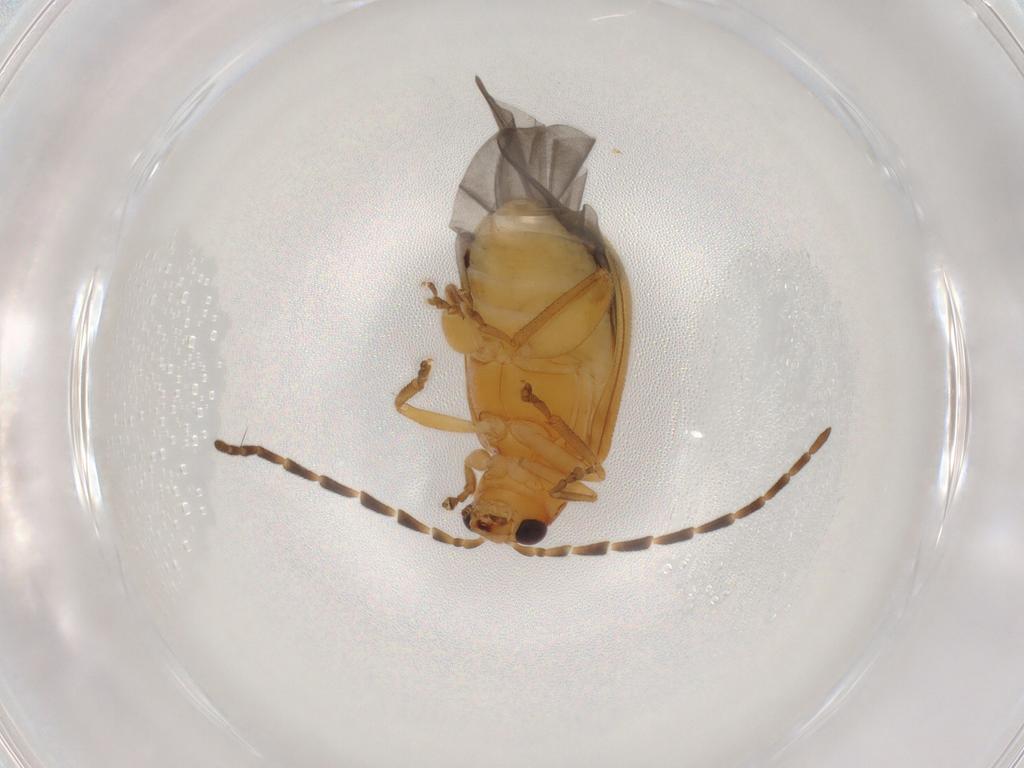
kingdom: Animalia
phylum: Arthropoda
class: Insecta
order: Coleoptera
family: Chrysomelidae
